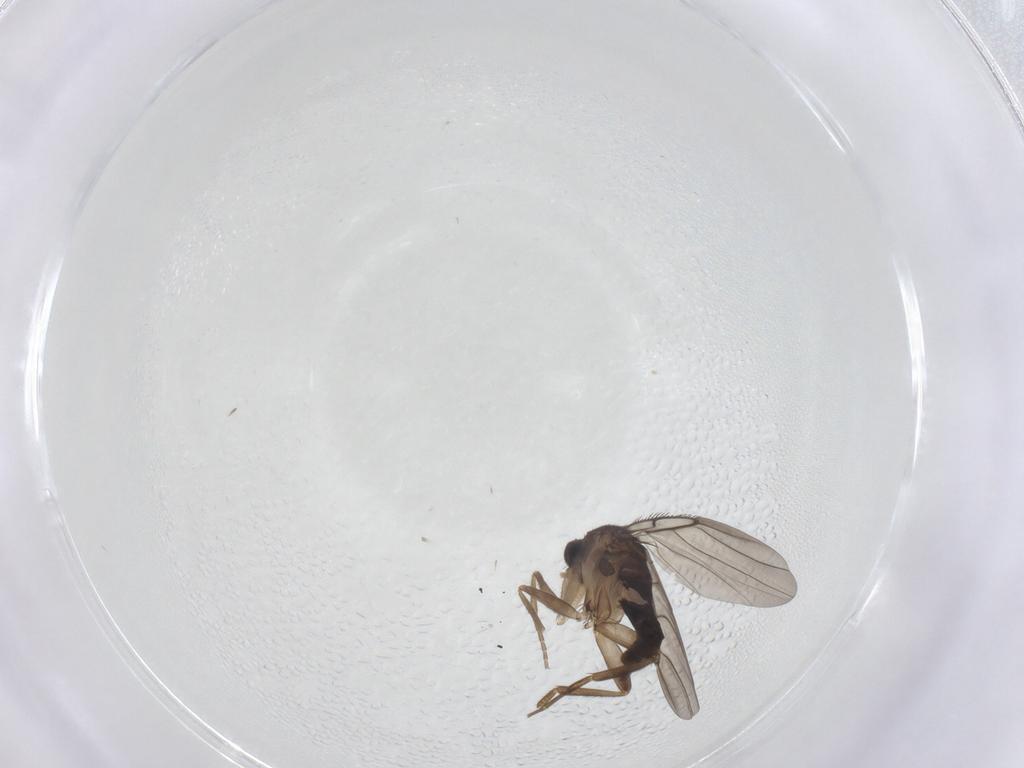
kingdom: Animalia
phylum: Arthropoda
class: Insecta
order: Diptera
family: Phoridae
